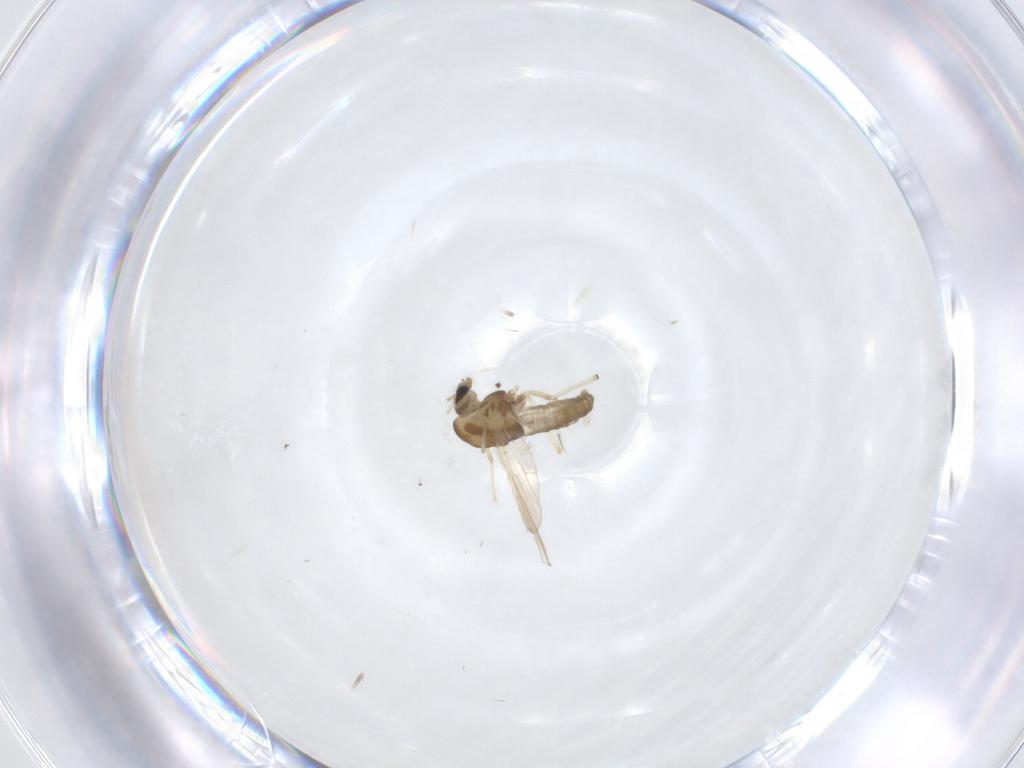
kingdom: Animalia
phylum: Arthropoda
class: Insecta
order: Diptera
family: Chironomidae
